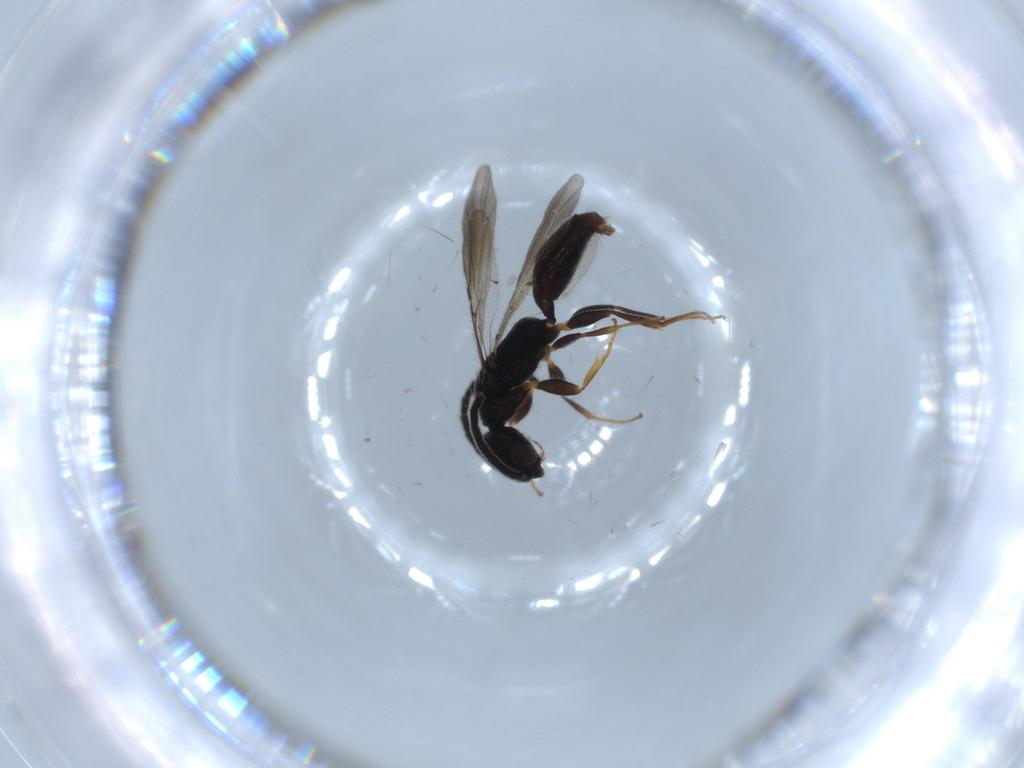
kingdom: Animalia
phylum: Arthropoda
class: Insecta
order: Hymenoptera
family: Bethylidae
